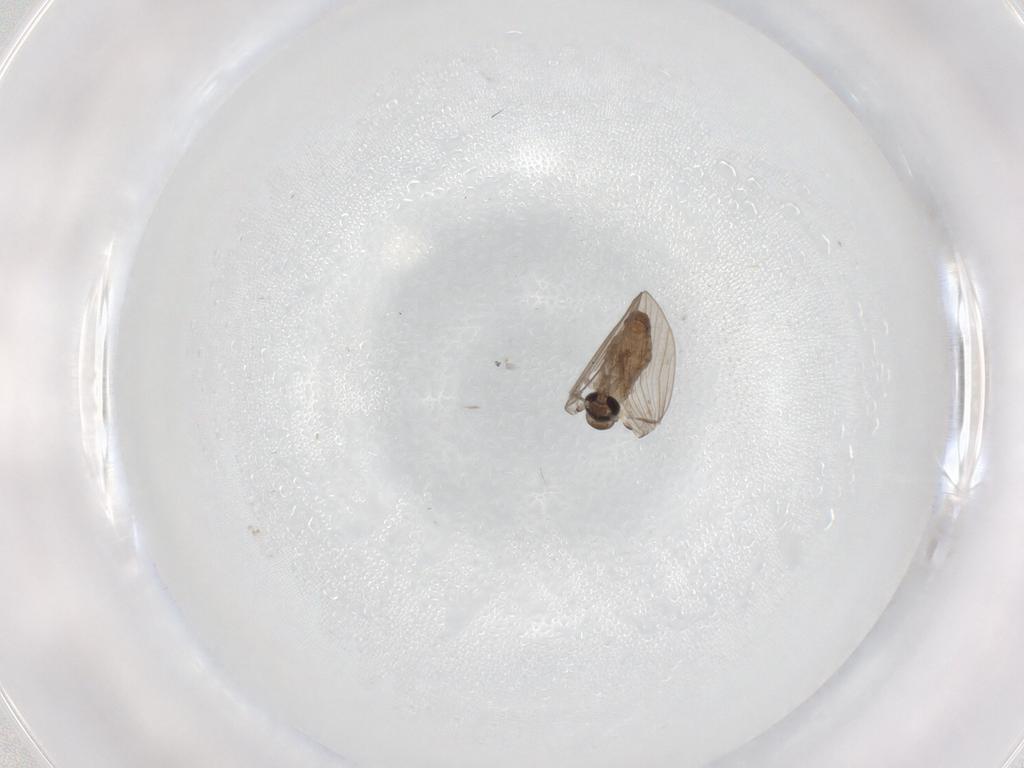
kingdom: Animalia
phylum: Arthropoda
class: Insecta
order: Diptera
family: Psychodidae
